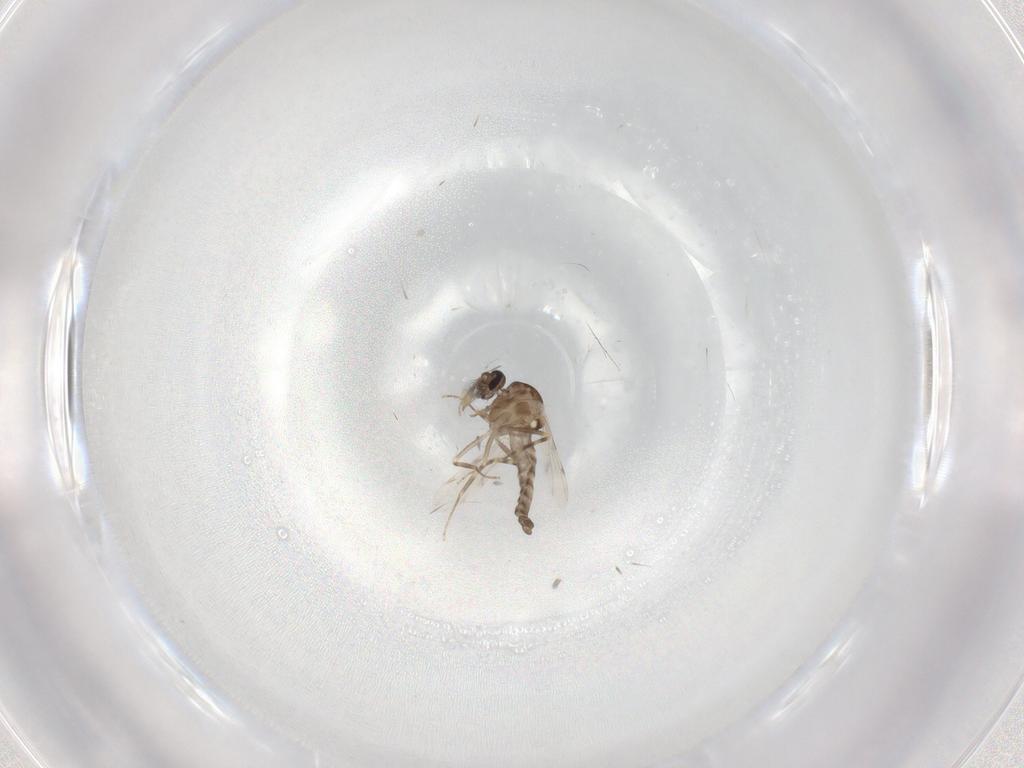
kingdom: Animalia
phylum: Arthropoda
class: Insecta
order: Diptera
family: Ceratopogonidae
